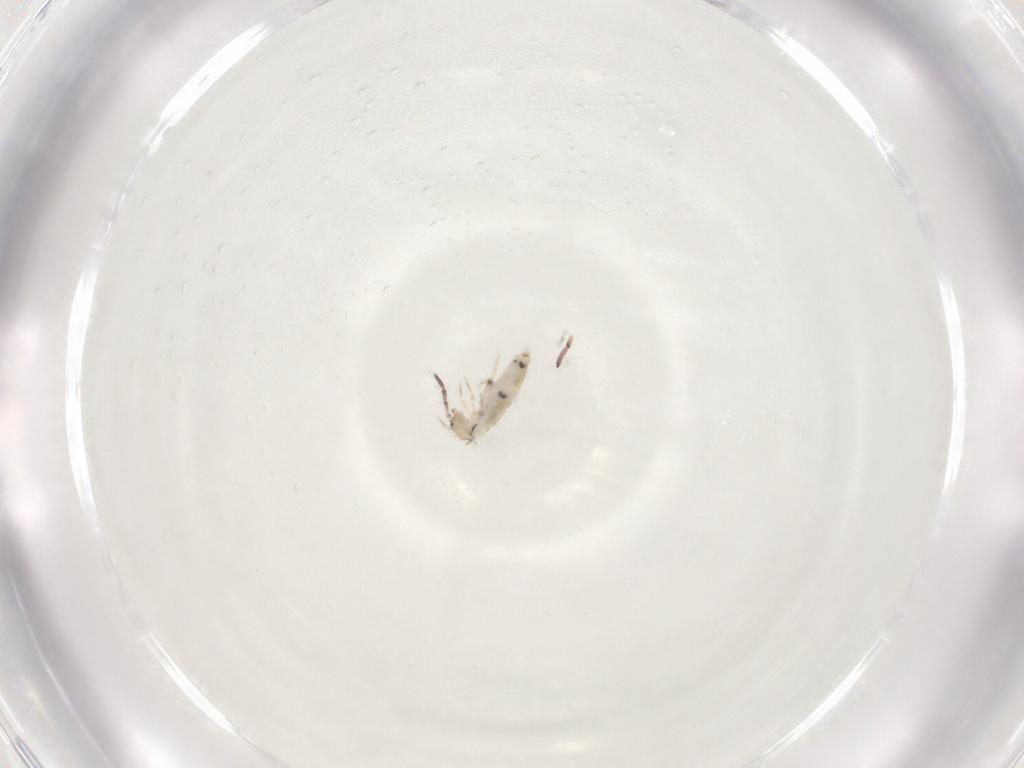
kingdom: Animalia
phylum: Arthropoda
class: Collembola
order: Entomobryomorpha
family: Entomobryidae
